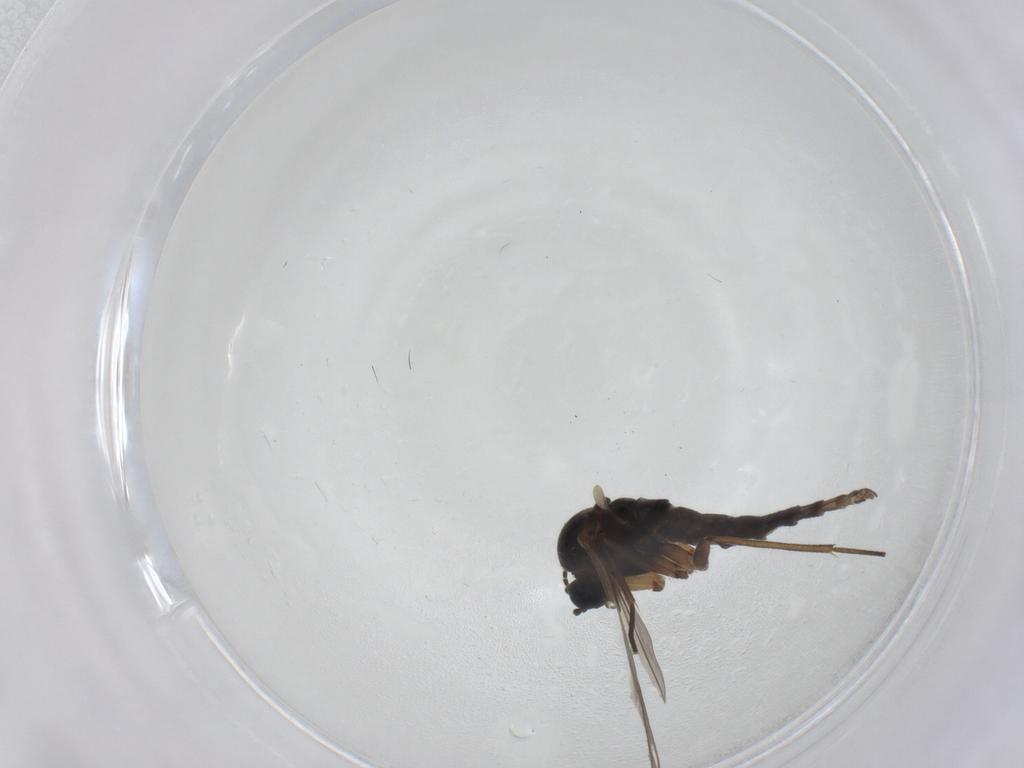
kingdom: Animalia
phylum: Arthropoda
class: Insecta
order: Diptera
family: Sciaridae
